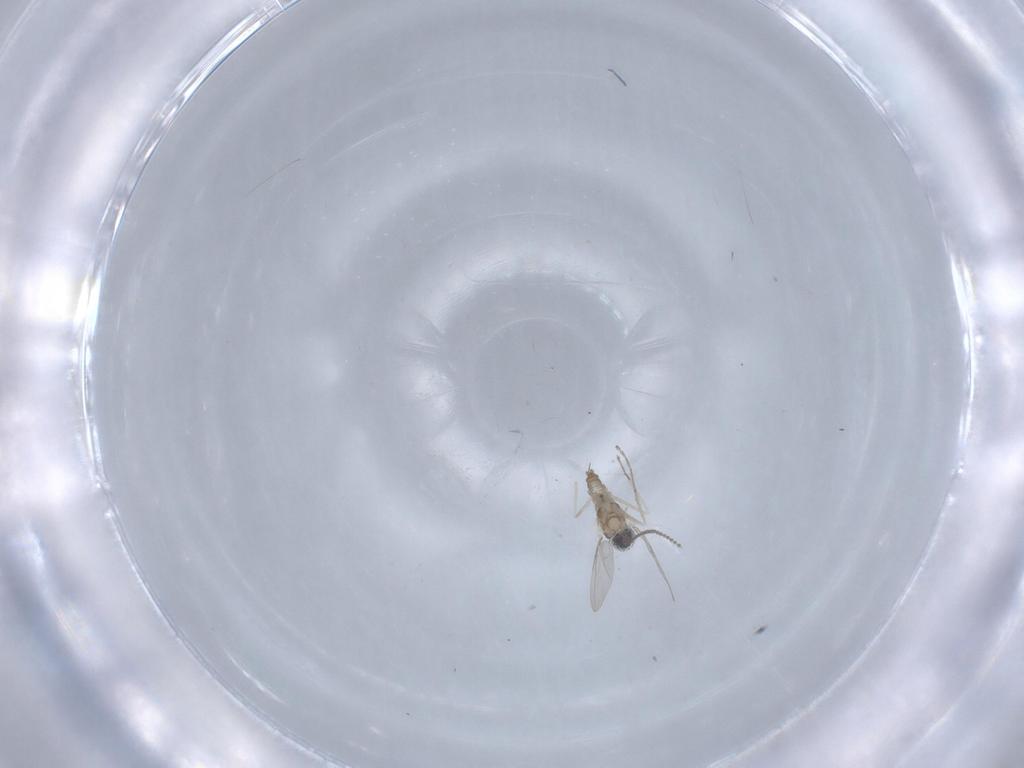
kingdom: Animalia
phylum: Arthropoda
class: Insecta
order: Diptera
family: Cecidomyiidae
